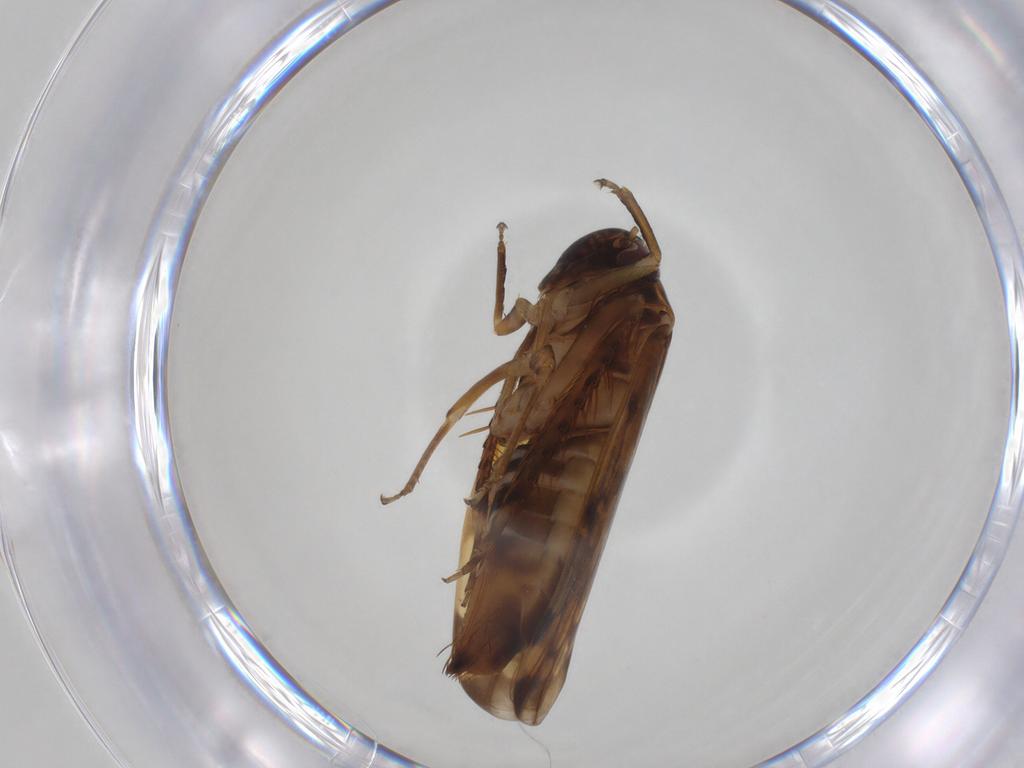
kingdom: Animalia
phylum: Arthropoda
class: Insecta
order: Hemiptera
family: Cicadellidae
